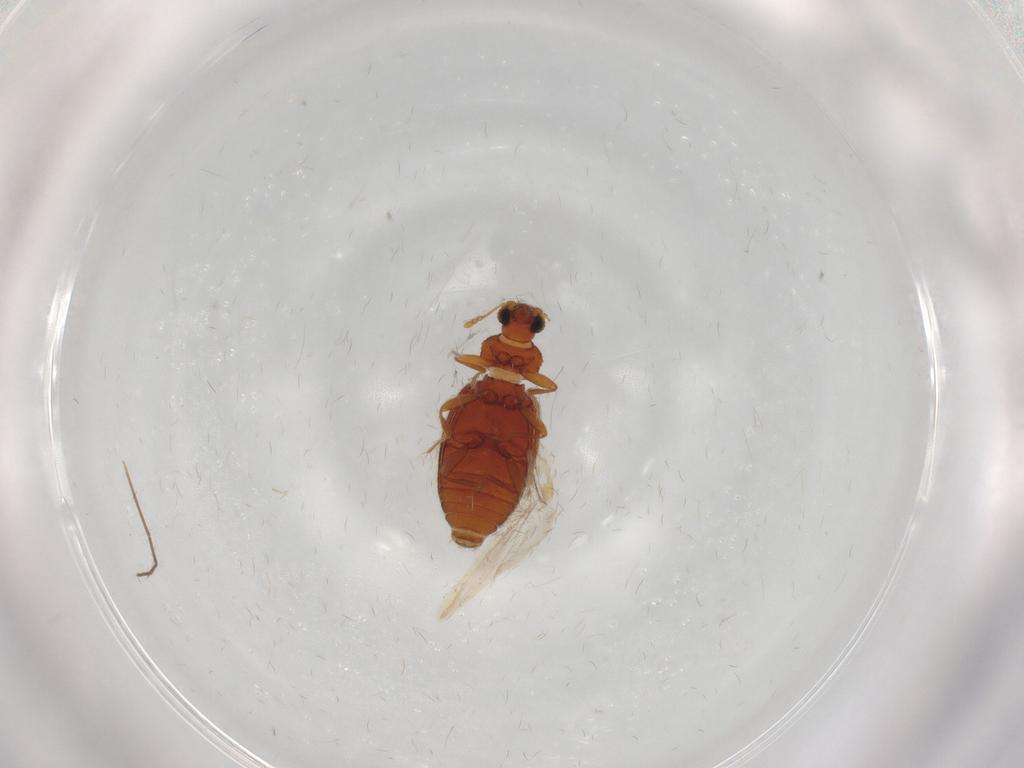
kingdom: Animalia
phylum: Arthropoda
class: Insecta
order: Coleoptera
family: Latridiidae
